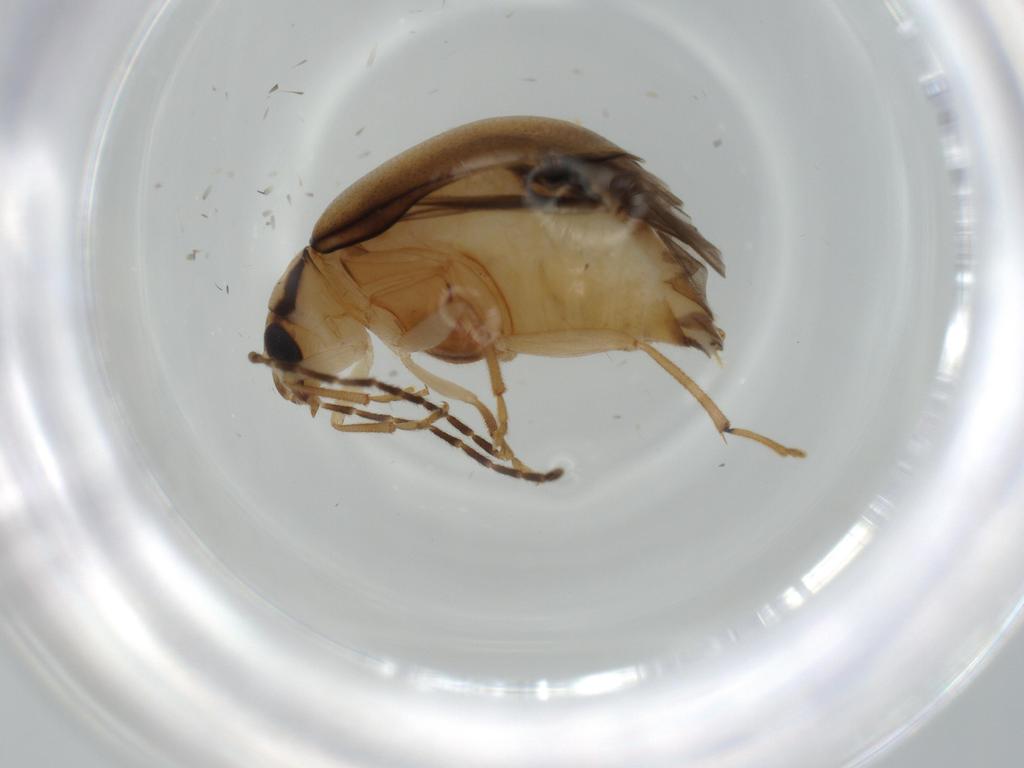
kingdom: Animalia
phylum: Arthropoda
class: Insecta
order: Coleoptera
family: Chrysomelidae
